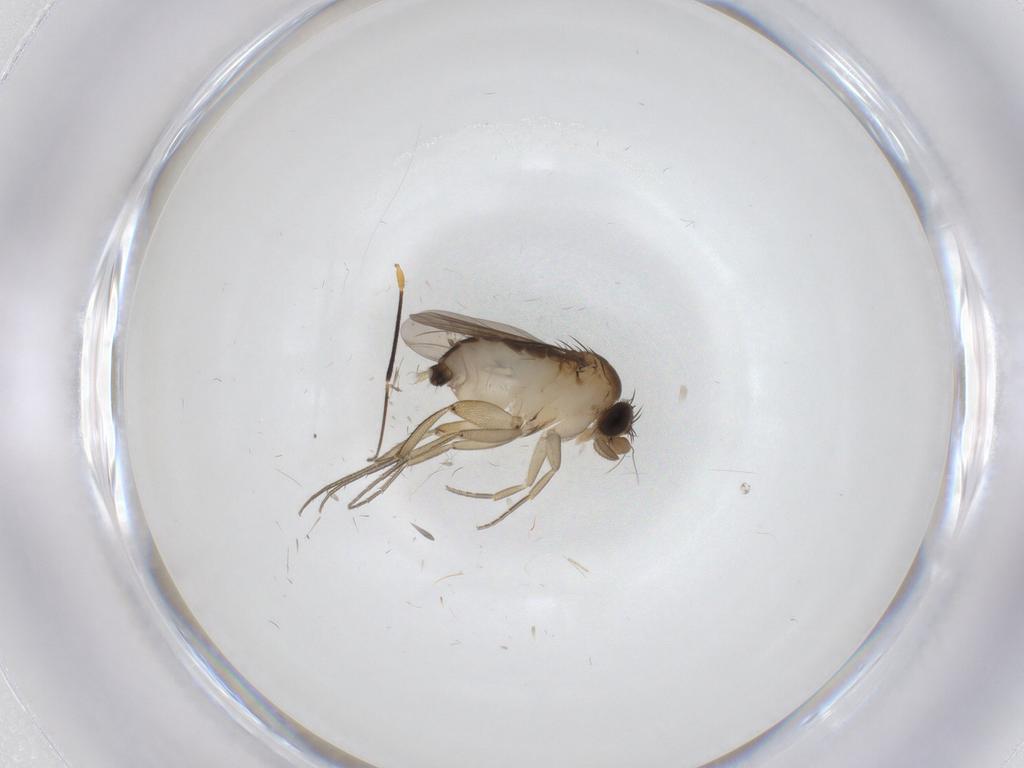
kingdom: Animalia
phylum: Arthropoda
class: Insecta
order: Diptera
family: Phoridae
